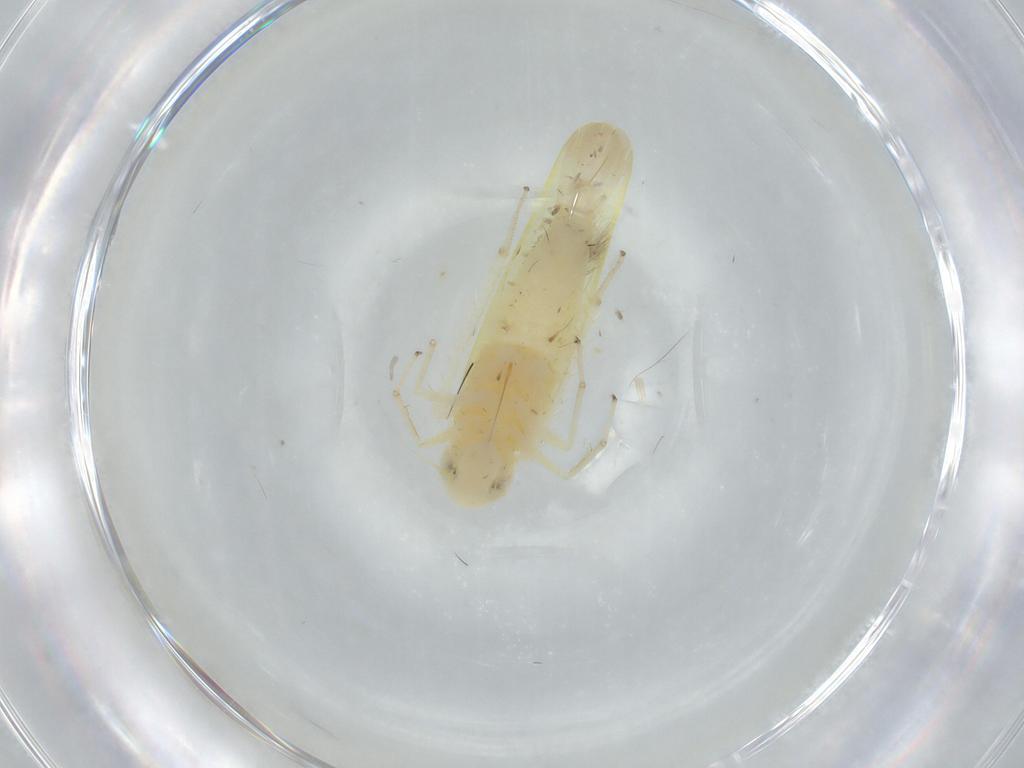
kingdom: Animalia
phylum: Arthropoda
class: Insecta
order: Hemiptera
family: Cicadellidae
